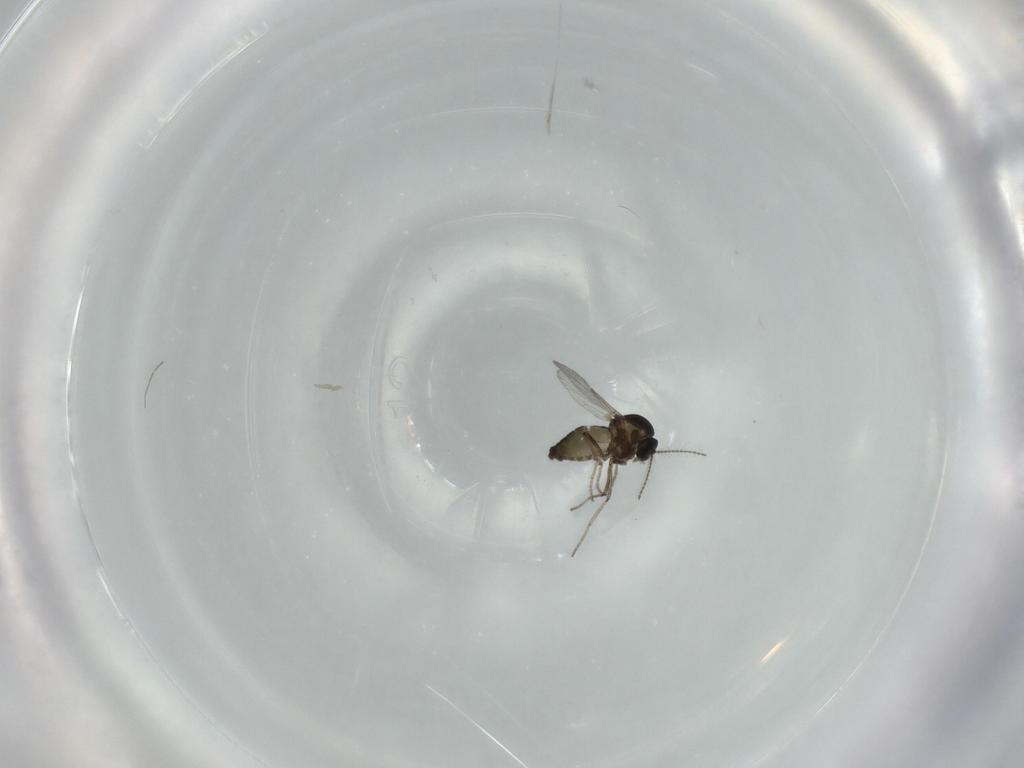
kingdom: Animalia
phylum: Arthropoda
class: Insecta
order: Diptera
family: Ceratopogonidae
